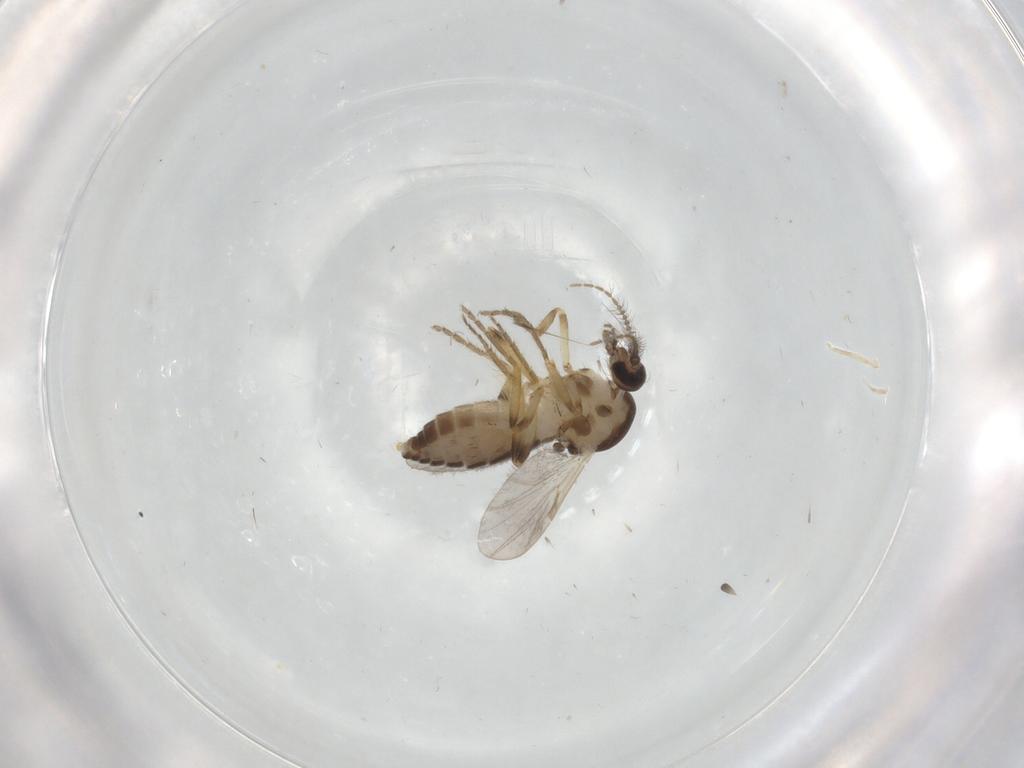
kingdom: Animalia
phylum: Arthropoda
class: Insecta
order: Diptera
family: Ceratopogonidae
